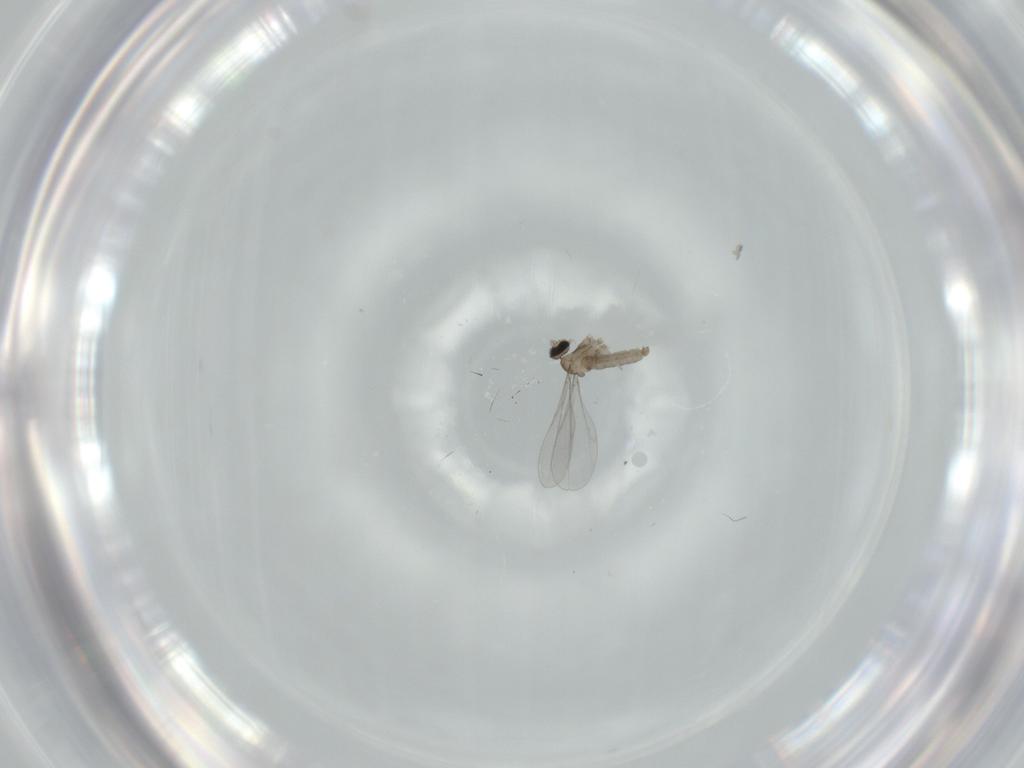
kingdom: Animalia
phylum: Arthropoda
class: Insecta
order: Diptera
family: Cecidomyiidae
